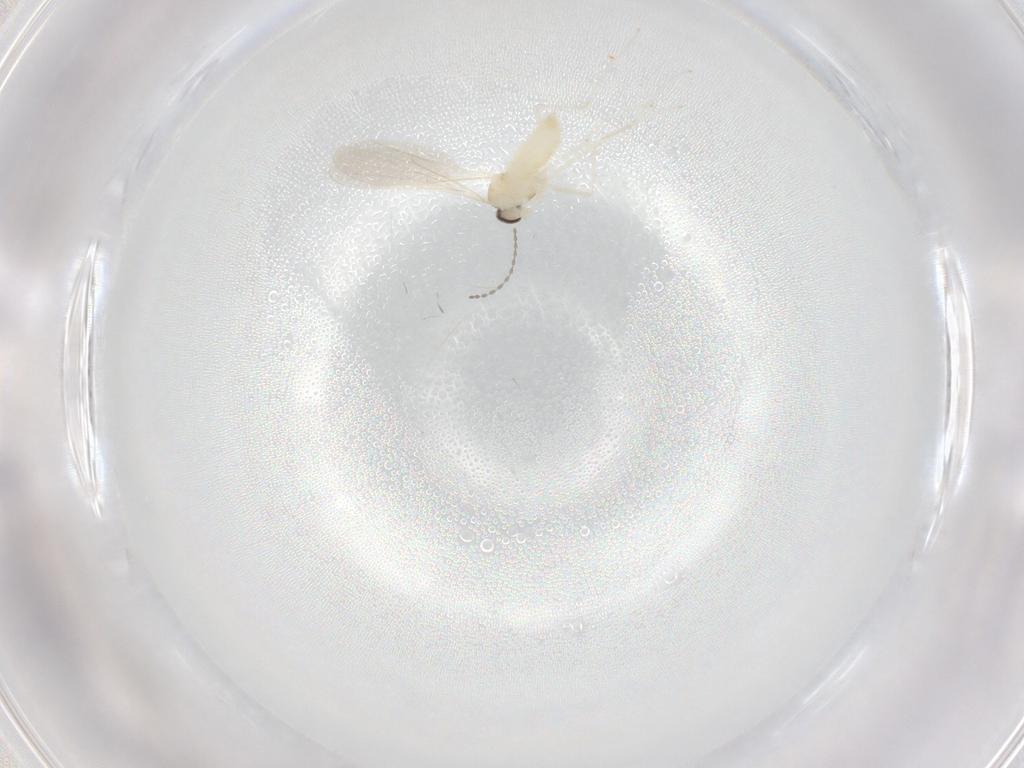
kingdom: Animalia
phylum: Arthropoda
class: Insecta
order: Diptera
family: Cecidomyiidae
